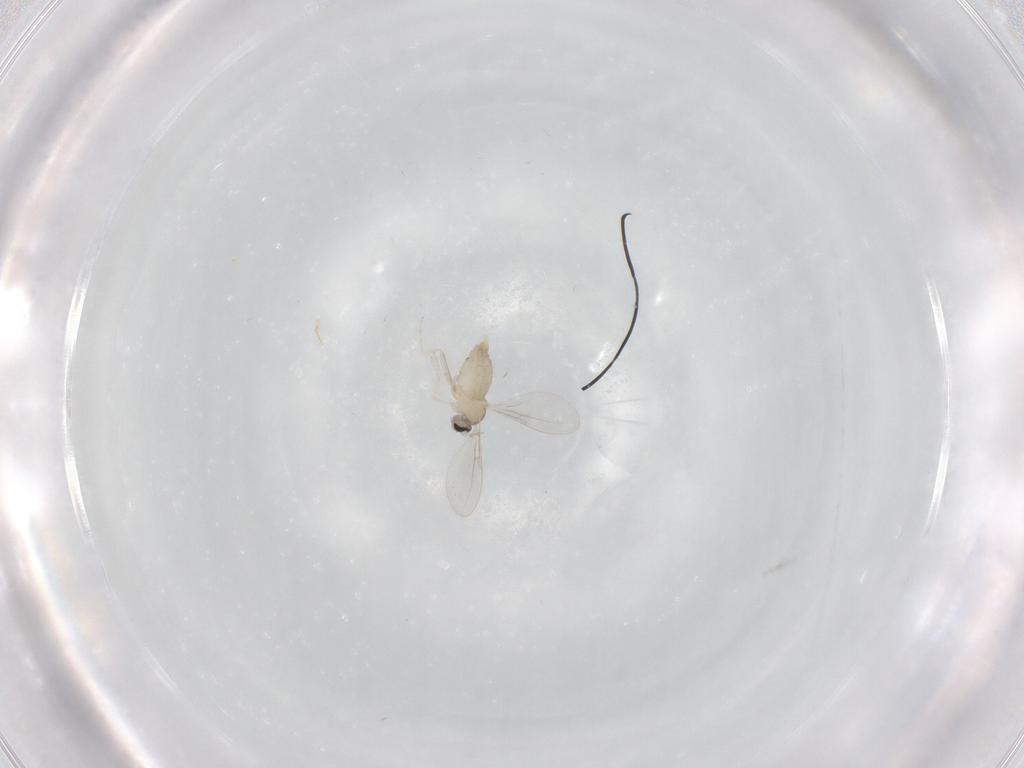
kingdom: Animalia
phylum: Arthropoda
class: Insecta
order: Diptera
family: Cecidomyiidae
